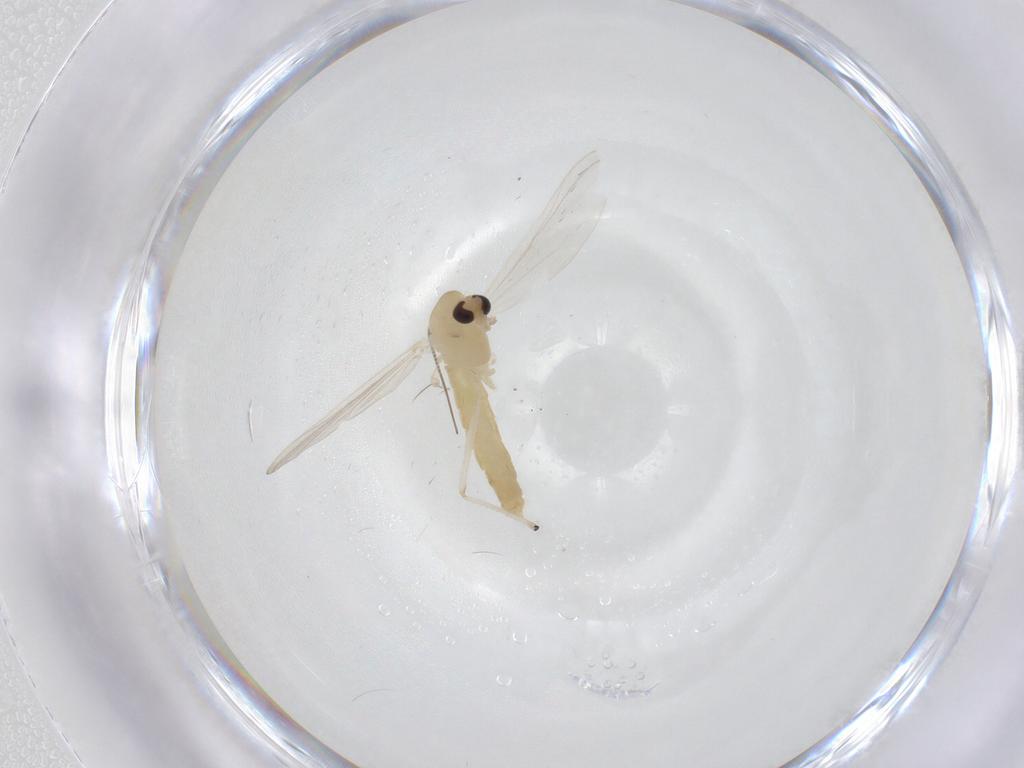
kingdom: Animalia
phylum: Arthropoda
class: Insecta
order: Diptera
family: Chironomidae
